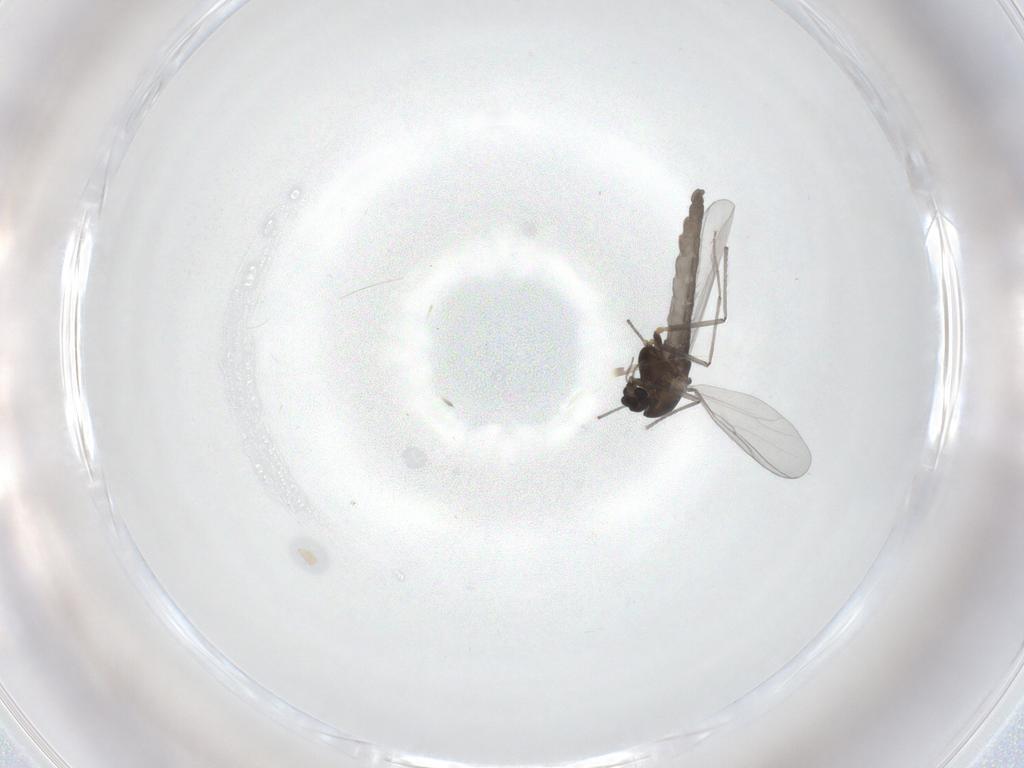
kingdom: Animalia
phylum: Arthropoda
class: Insecta
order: Diptera
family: Chironomidae
